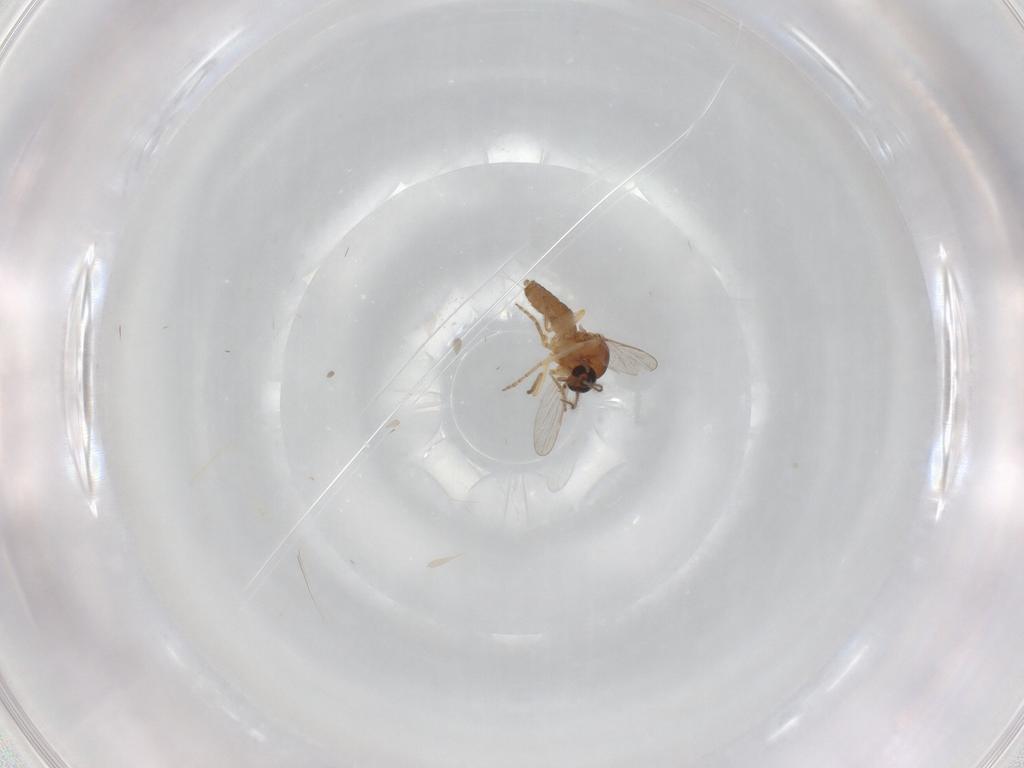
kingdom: Animalia
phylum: Arthropoda
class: Insecta
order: Diptera
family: Ceratopogonidae
